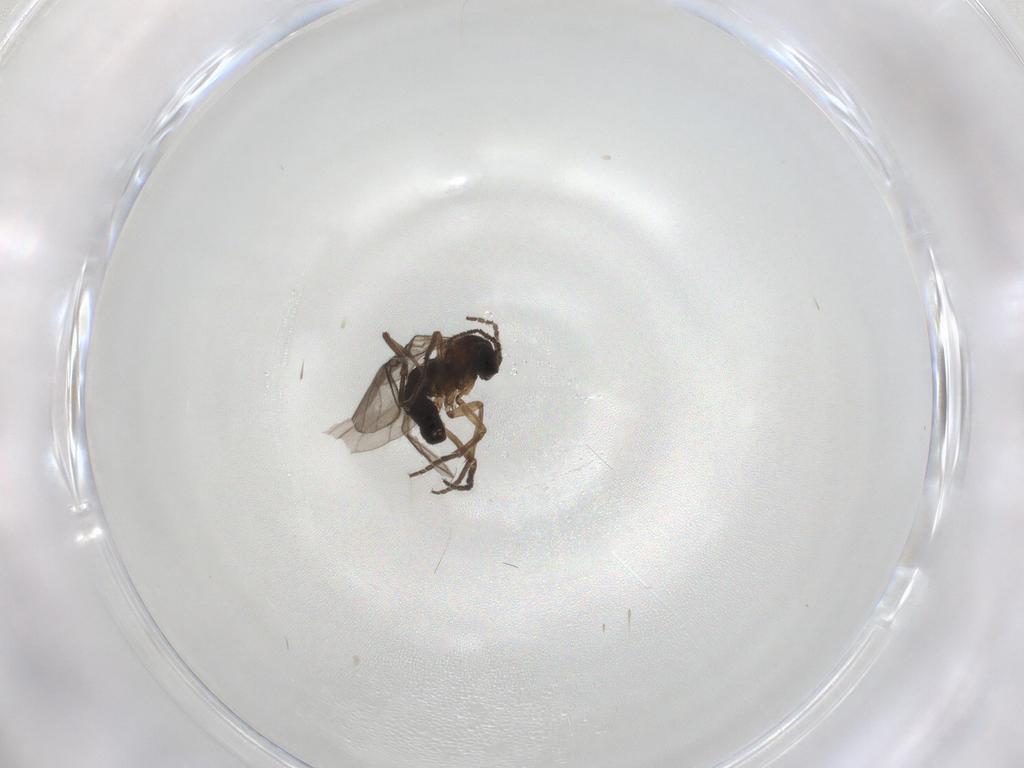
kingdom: Animalia
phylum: Arthropoda
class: Insecta
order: Diptera
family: Sciaridae
